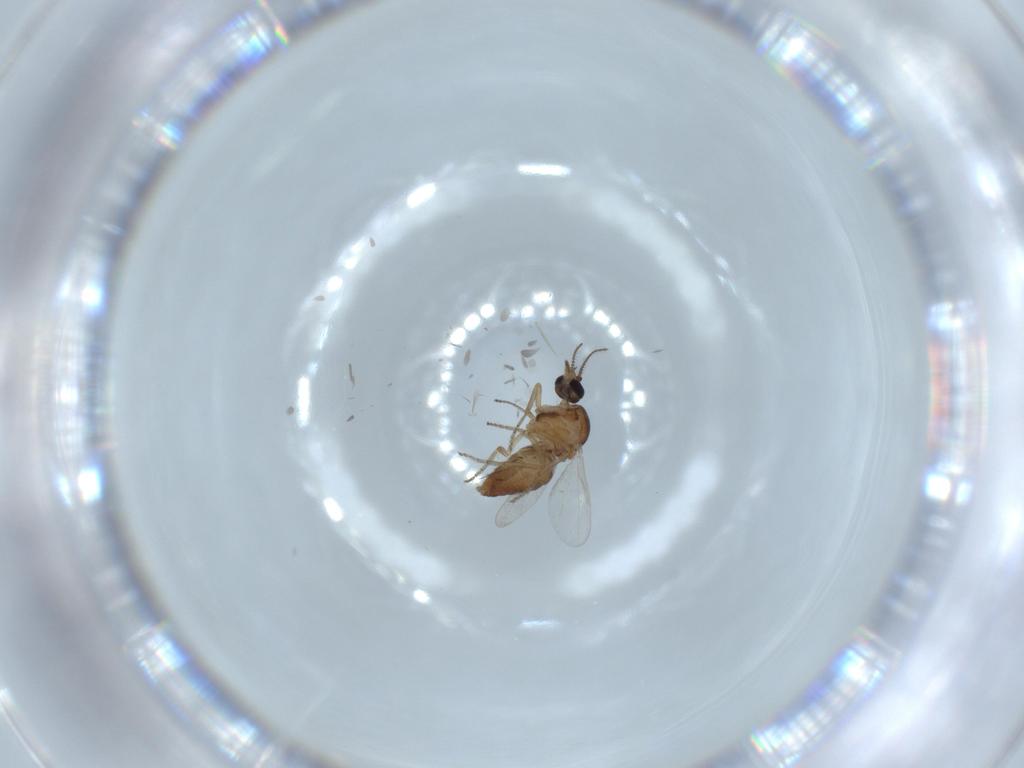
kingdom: Animalia
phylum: Arthropoda
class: Insecta
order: Diptera
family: Ceratopogonidae
